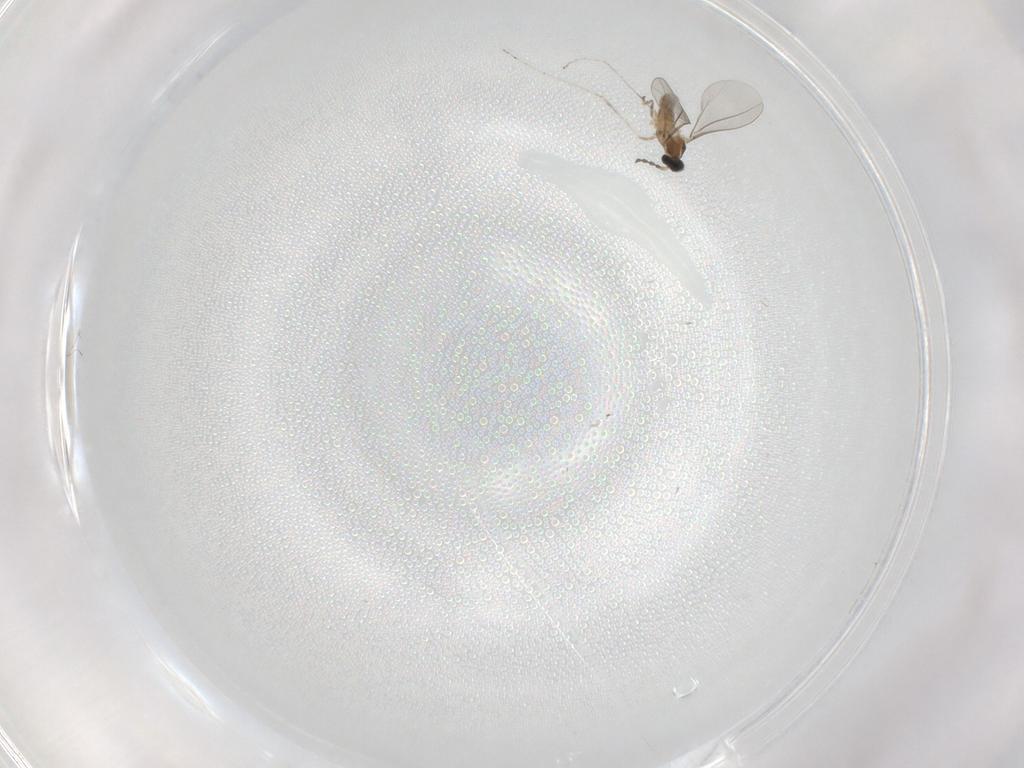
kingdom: Animalia
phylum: Arthropoda
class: Insecta
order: Diptera
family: Cecidomyiidae
